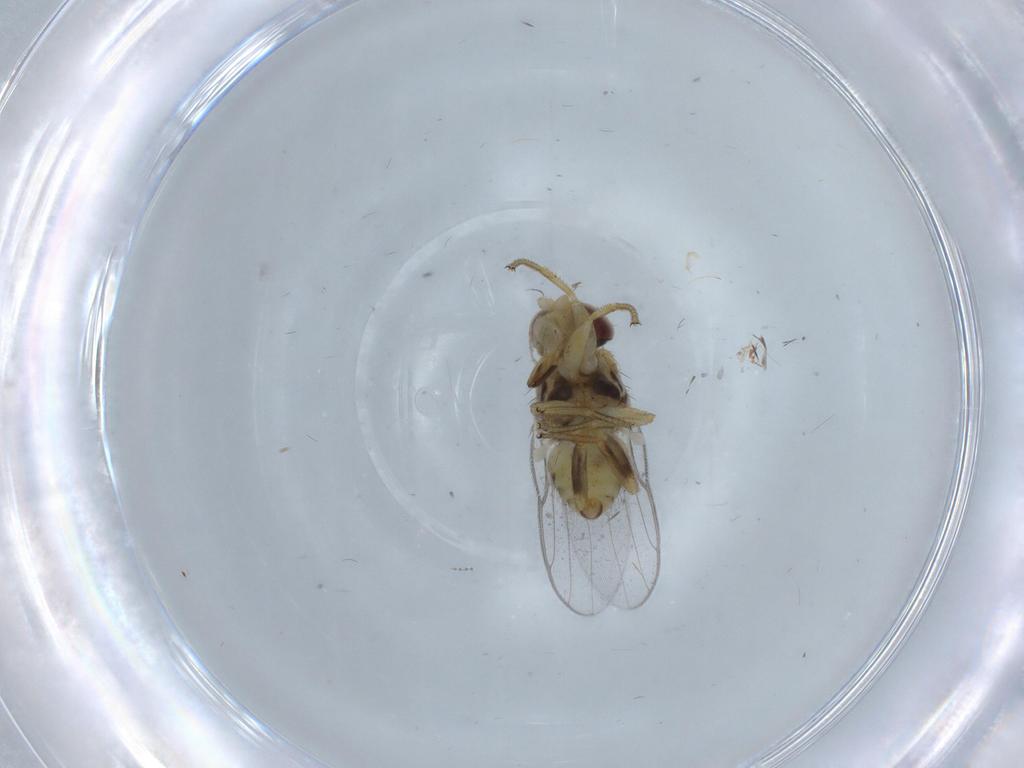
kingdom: Animalia
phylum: Arthropoda
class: Insecta
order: Diptera
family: Chloropidae
